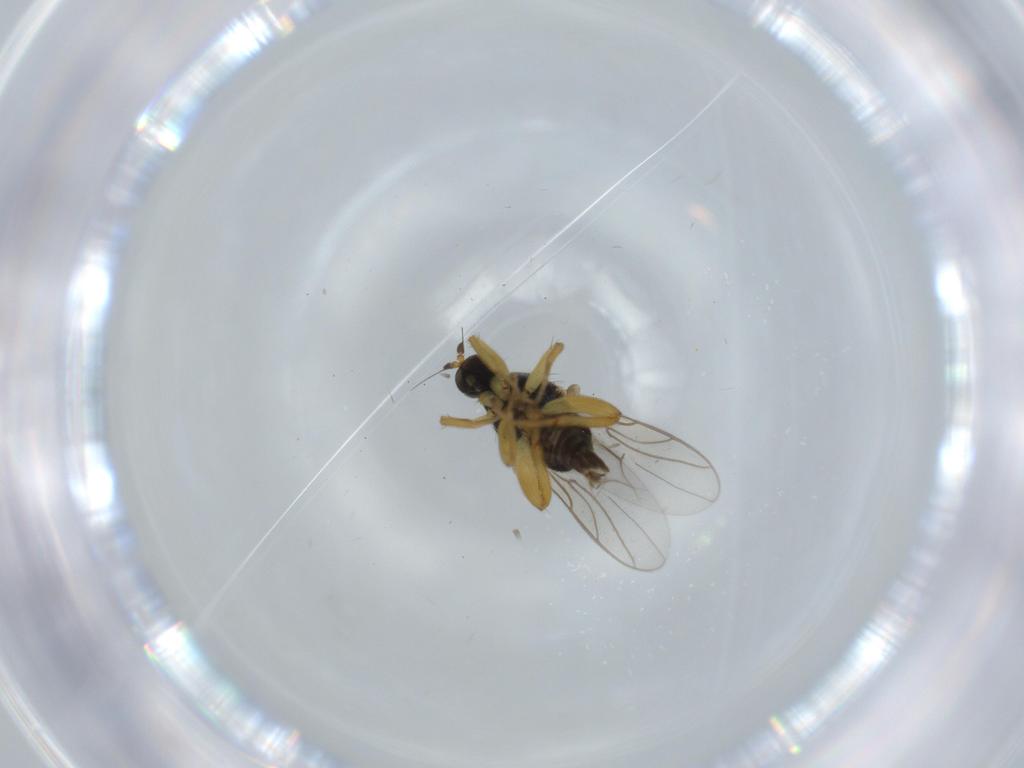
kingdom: Animalia
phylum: Arthropoda
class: Insecta
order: Diptera
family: Hybotidae
